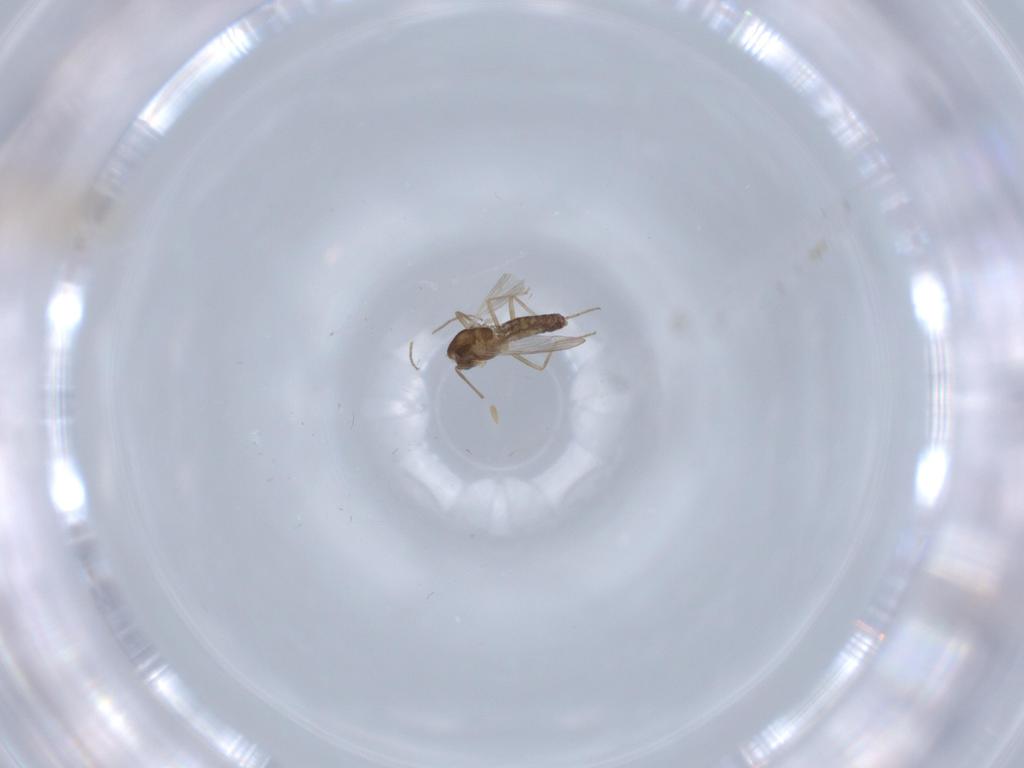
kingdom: Animalia
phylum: Arthropoda
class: Insecta
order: Diptera
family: Chironomidae
